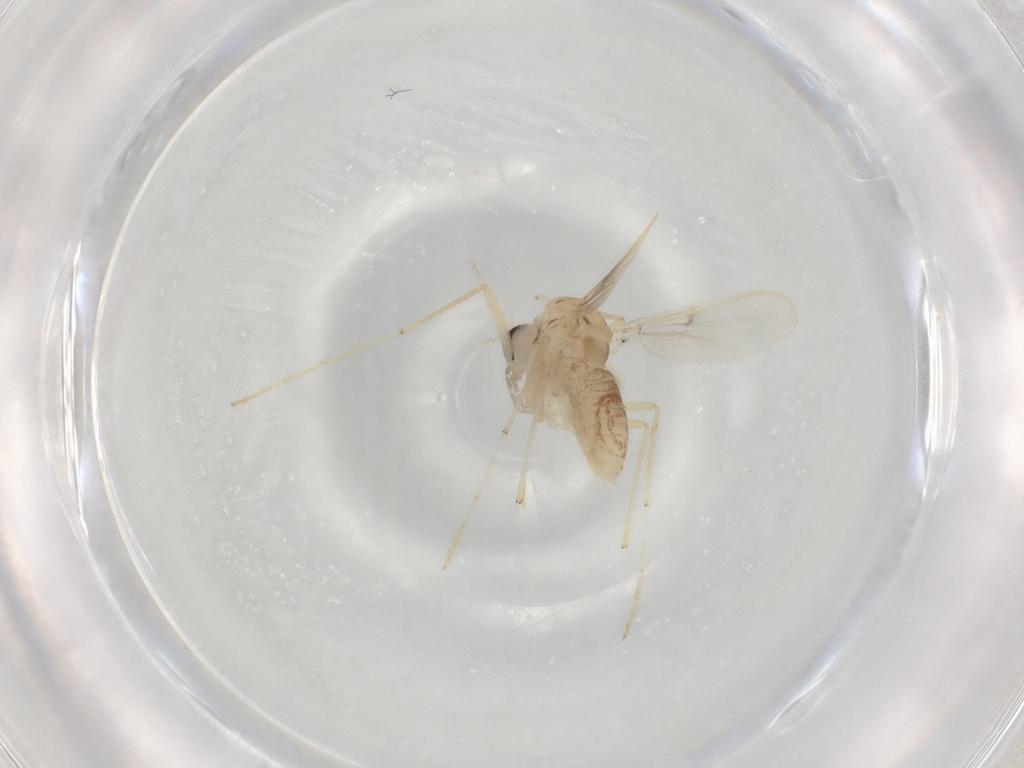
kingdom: Animalia
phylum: Arthropoda
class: Insecta
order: Diptera
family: Chironomidae
